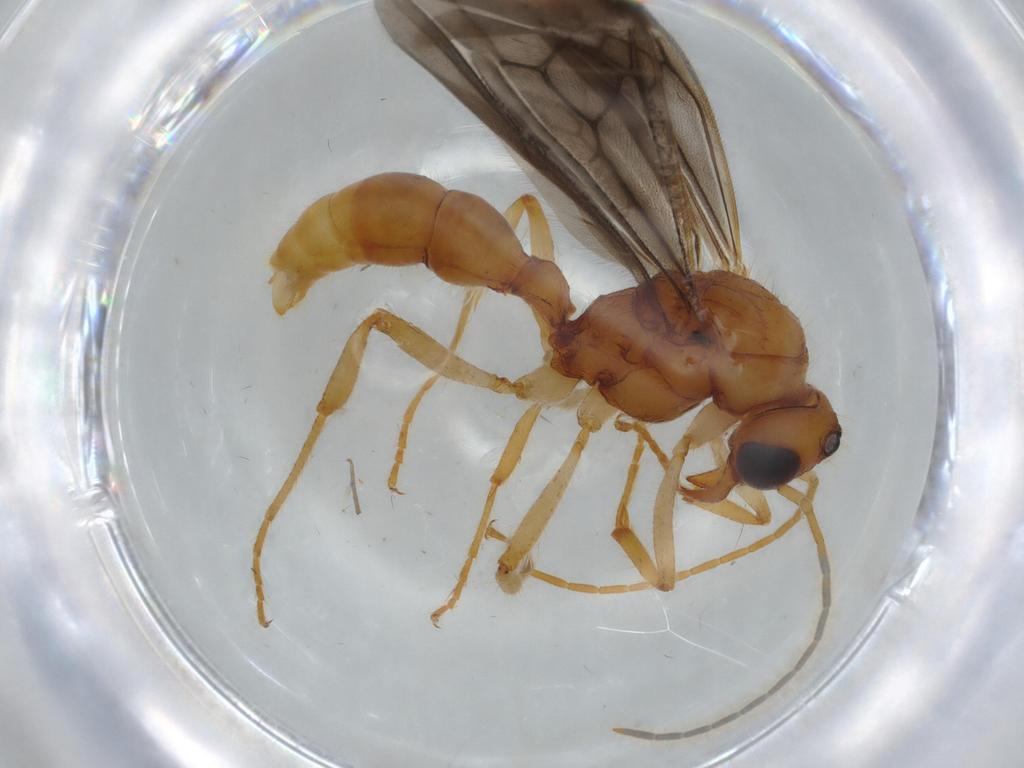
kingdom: Animalia
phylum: Arthropoda
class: Insecta
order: Hymenoptera
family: Formicidae
